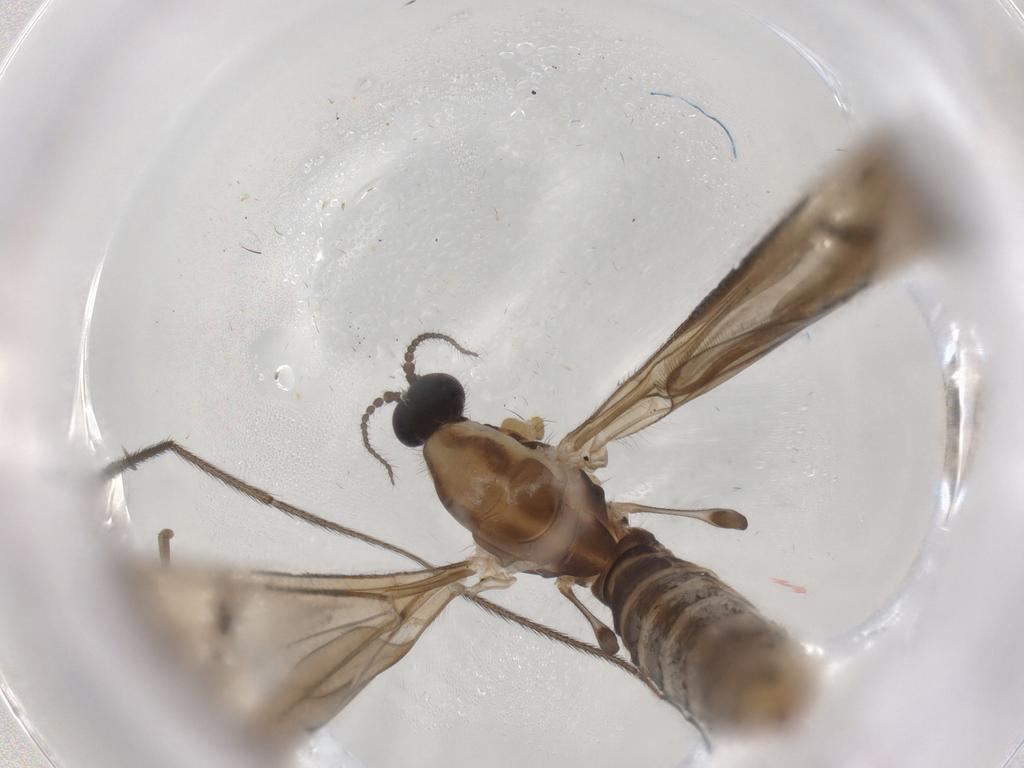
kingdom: Animalia
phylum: Arthropoda
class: Insecta
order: Diptera
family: Limoniidae
